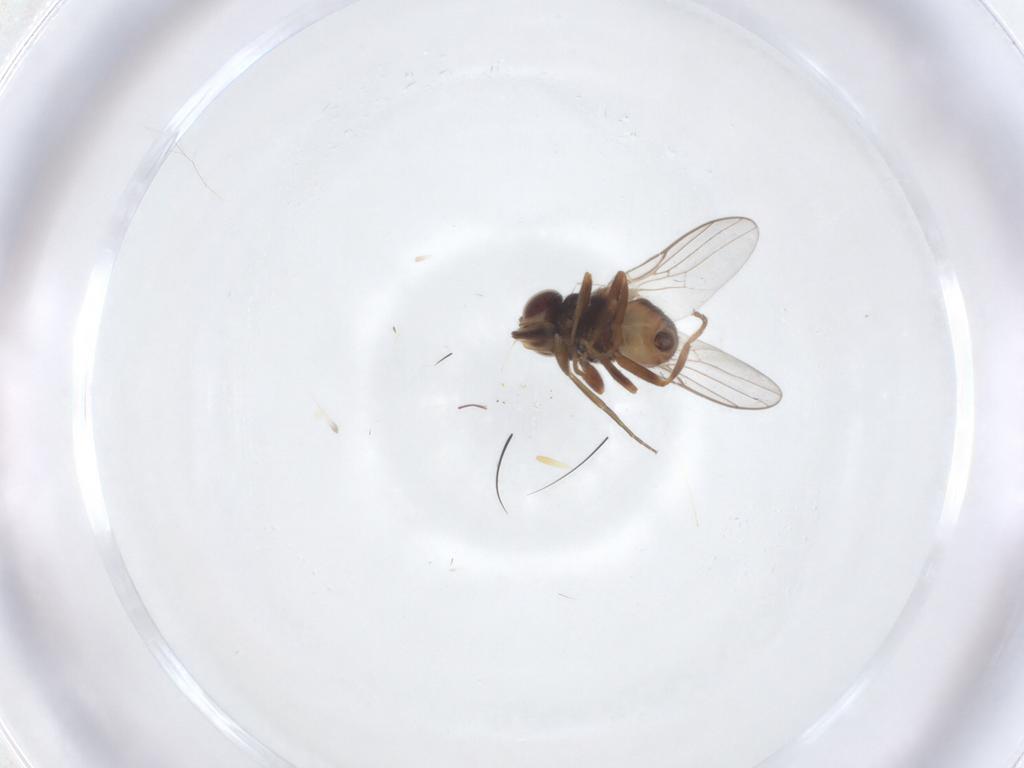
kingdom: Animalia
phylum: Arthropoda
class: Insecta
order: Diptera
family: Chloropidae
